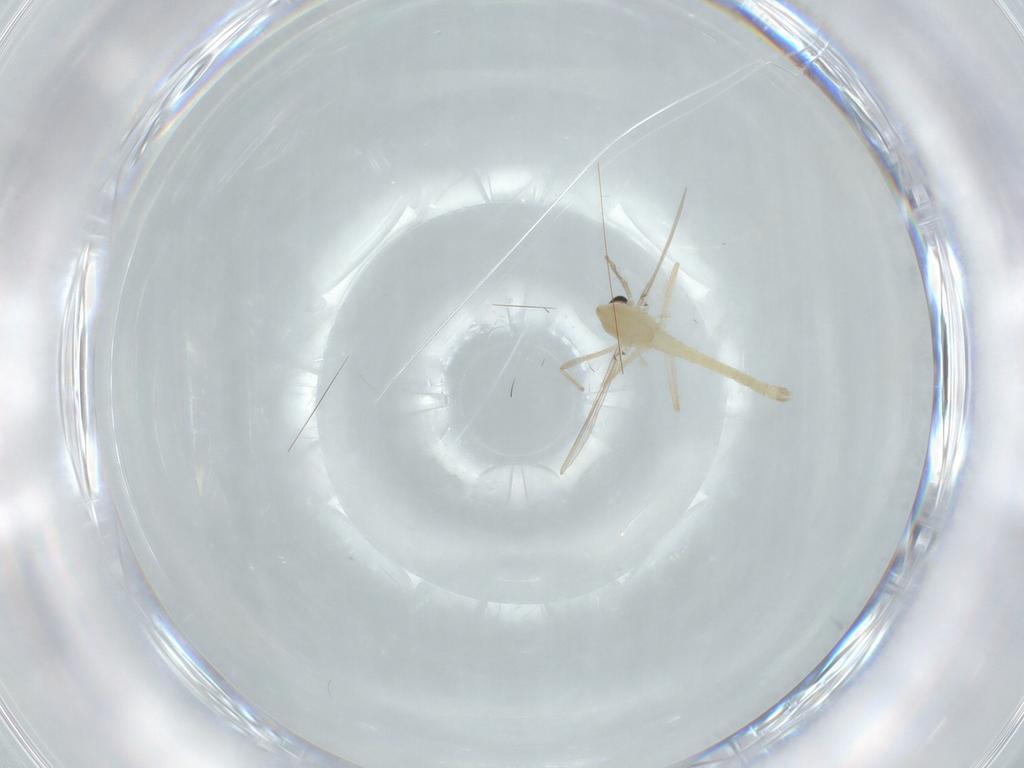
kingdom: Animalia
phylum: Arthropoda
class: Insecta
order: Diptera
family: Chironomidae
